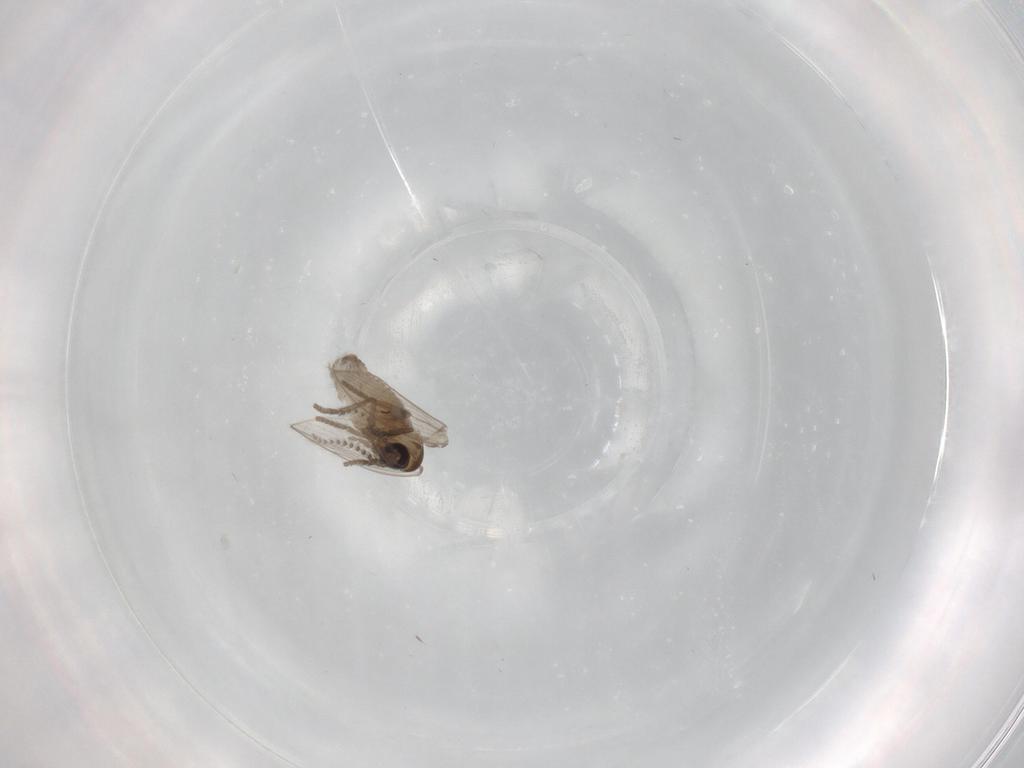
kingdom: Animalia
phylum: Arthropoda
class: Insecta
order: Diptera
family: Psychodidae
